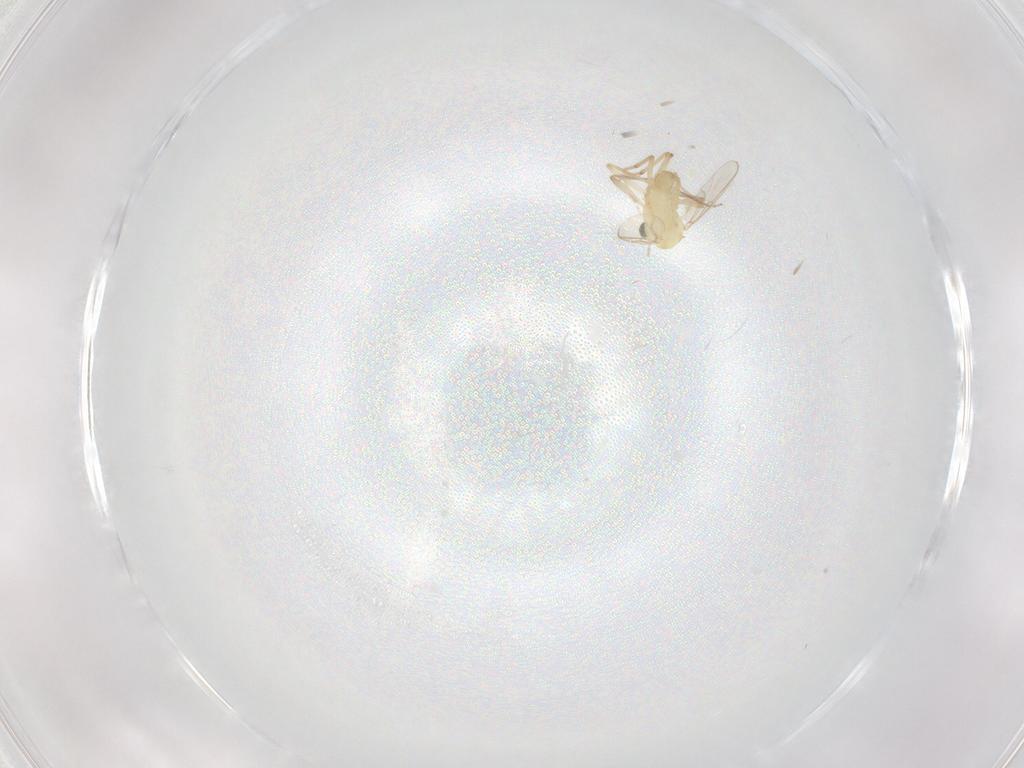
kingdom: Animalia
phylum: Arthropoda
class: Insecta
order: Diptera
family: Chironomidae
